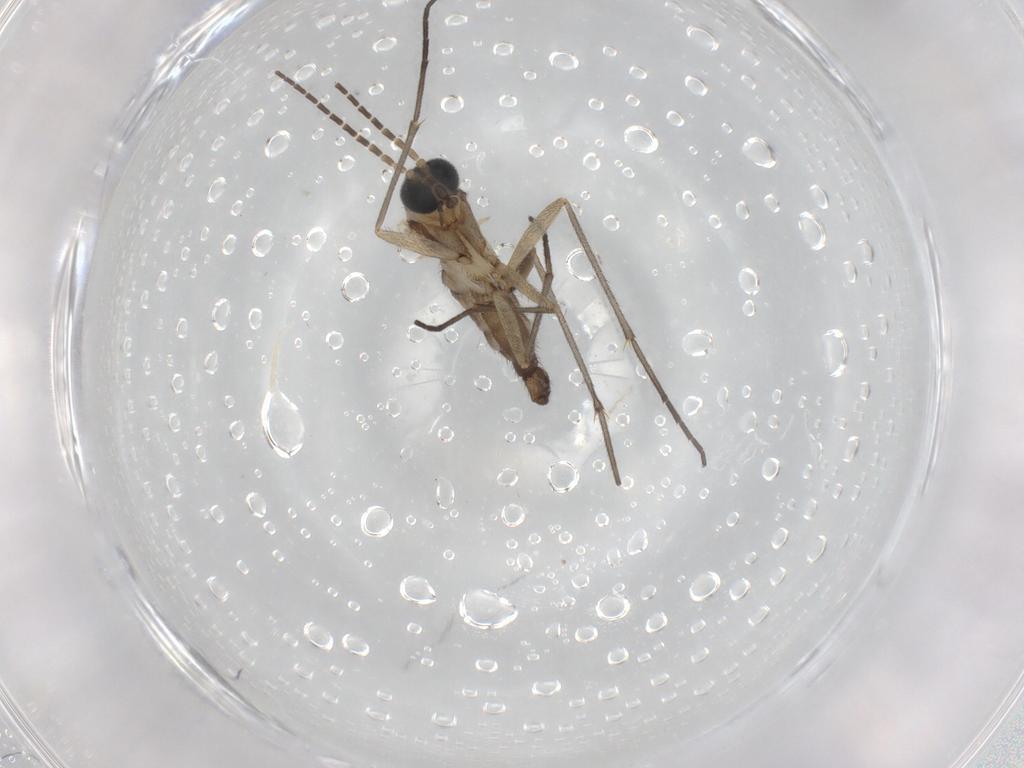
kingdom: Animalia
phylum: Arthropoda
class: Insecta
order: Diptera
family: Sciaridae
